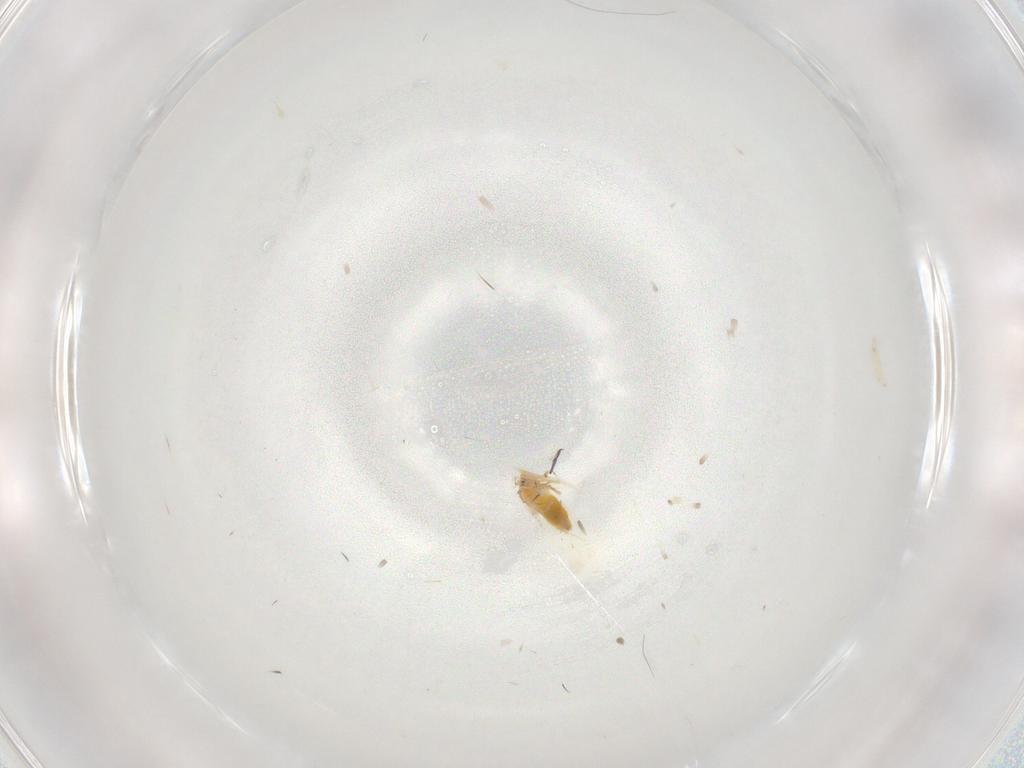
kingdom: Animalia
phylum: Arthropoda
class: Insecta
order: Hemiptera
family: Aleyrodidae
